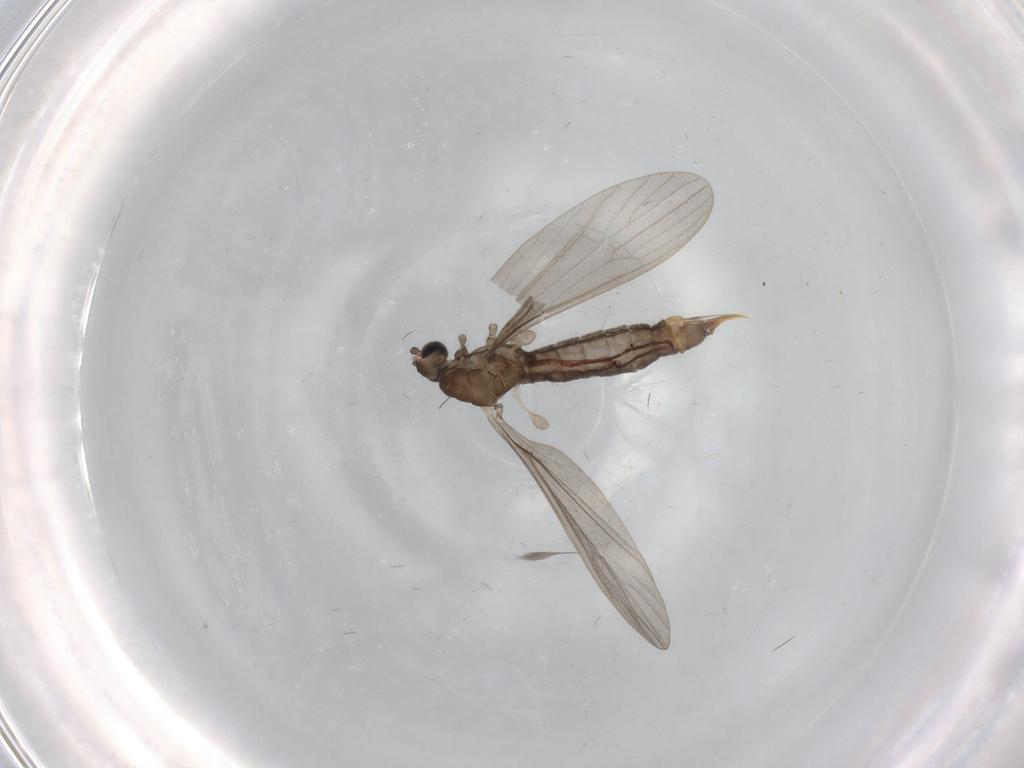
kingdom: Animalia
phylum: Arthropoda
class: Insecta
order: Diptera
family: Limoniidae
